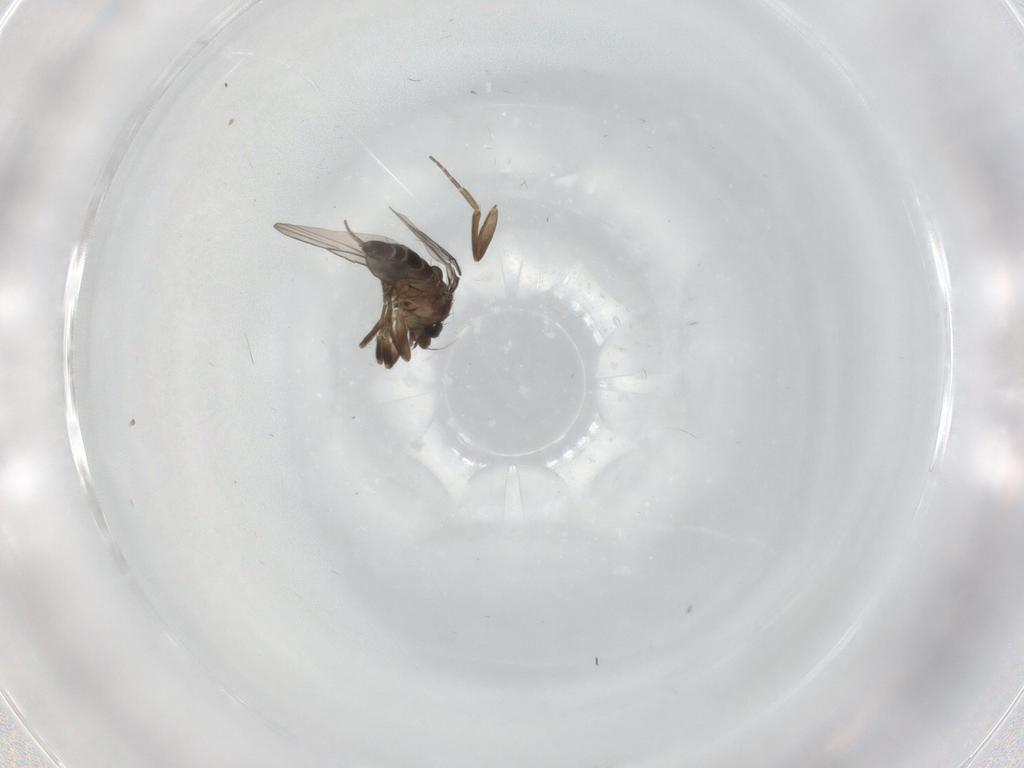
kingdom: Animalia
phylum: Arthropoda
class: Insecta
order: Diptera
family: Phoridae
